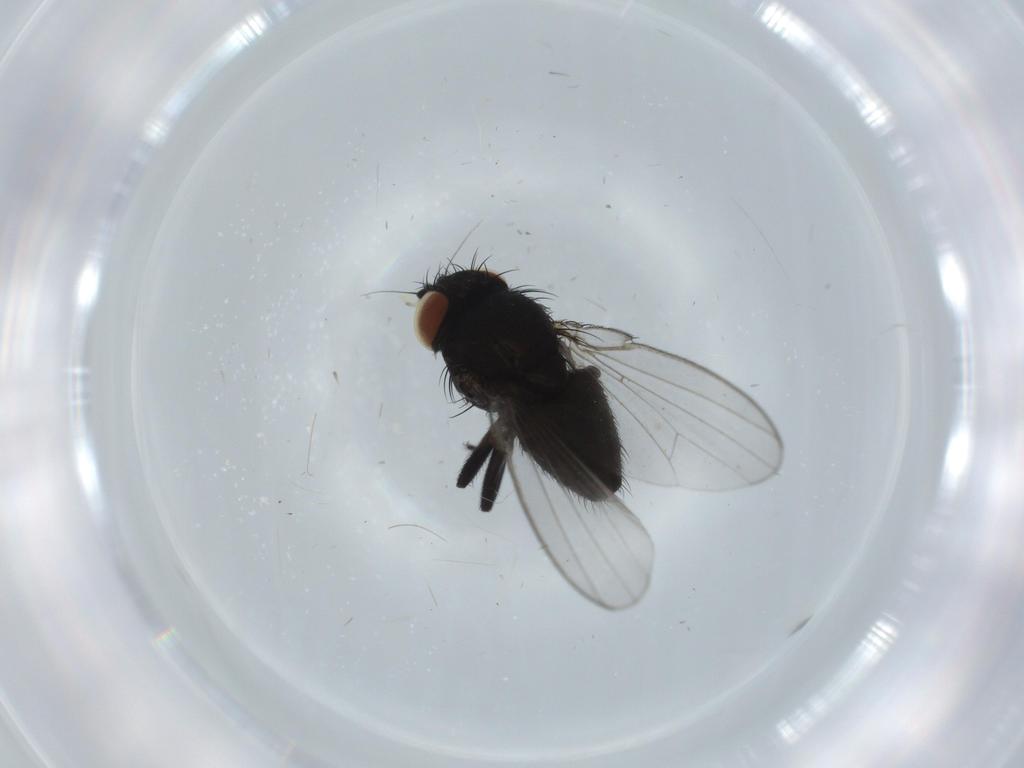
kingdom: Animalia
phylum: Arthropoda
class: Insecta
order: Diptera
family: Milichiidae
